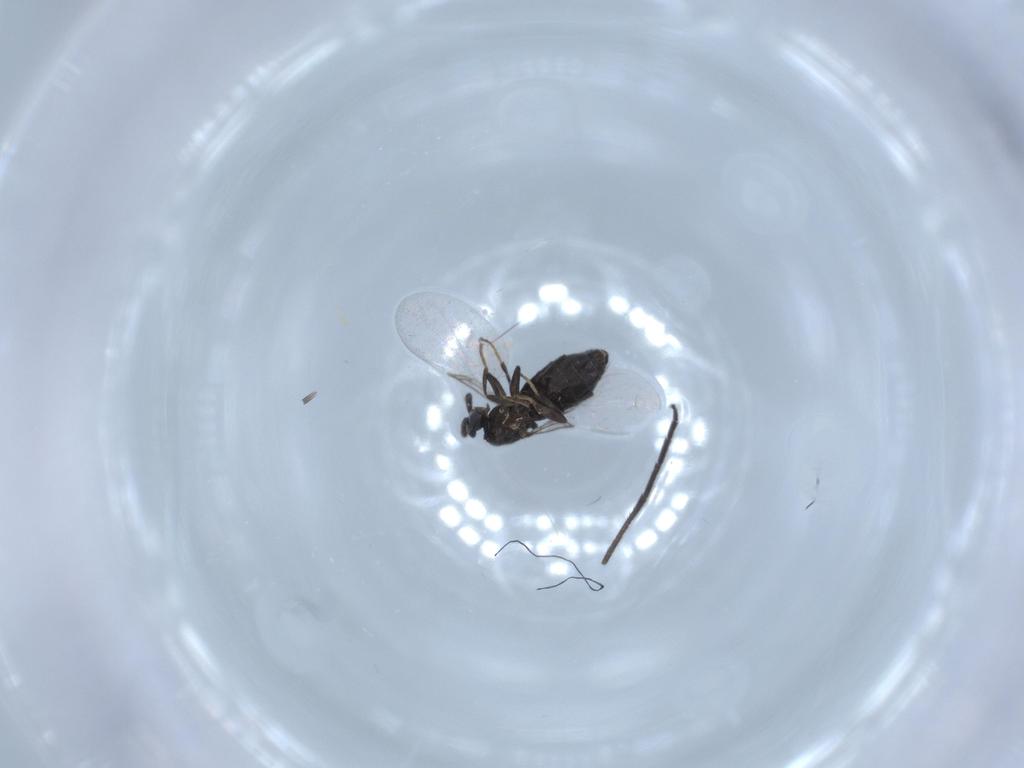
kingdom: Animalia
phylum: Arthropoda
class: Insecta
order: Diptera
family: Scatopsidae
